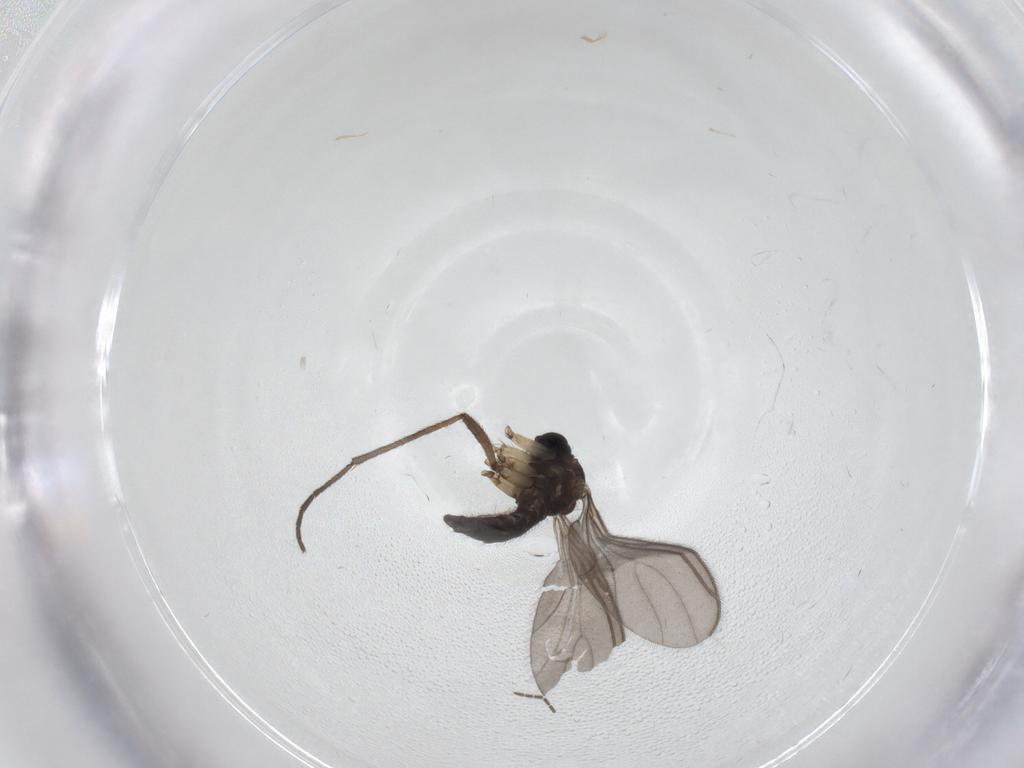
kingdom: Animalia
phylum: Arthropoda
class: Insecta
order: Diptera
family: Sciaridae
